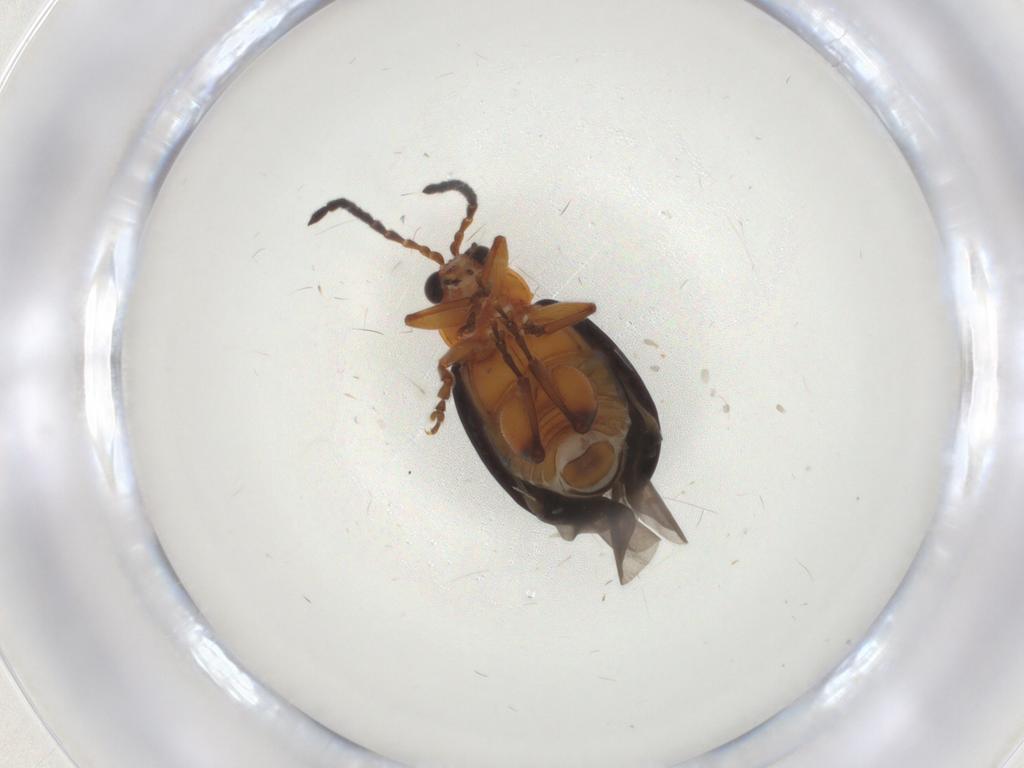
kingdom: Animalia
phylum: Arthropoda
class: Insecta
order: Coleoptera
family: Chrysomelidae
